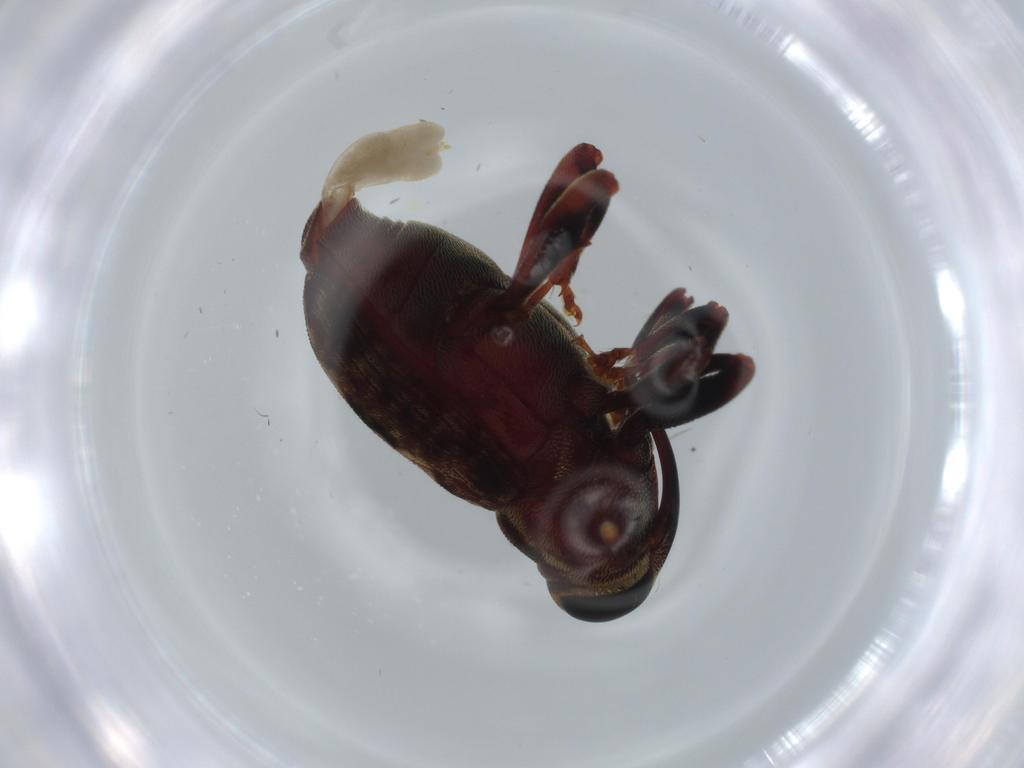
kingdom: Animalia
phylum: Arthropoda
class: Insecta
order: Coleoptera
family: Curculionidae
